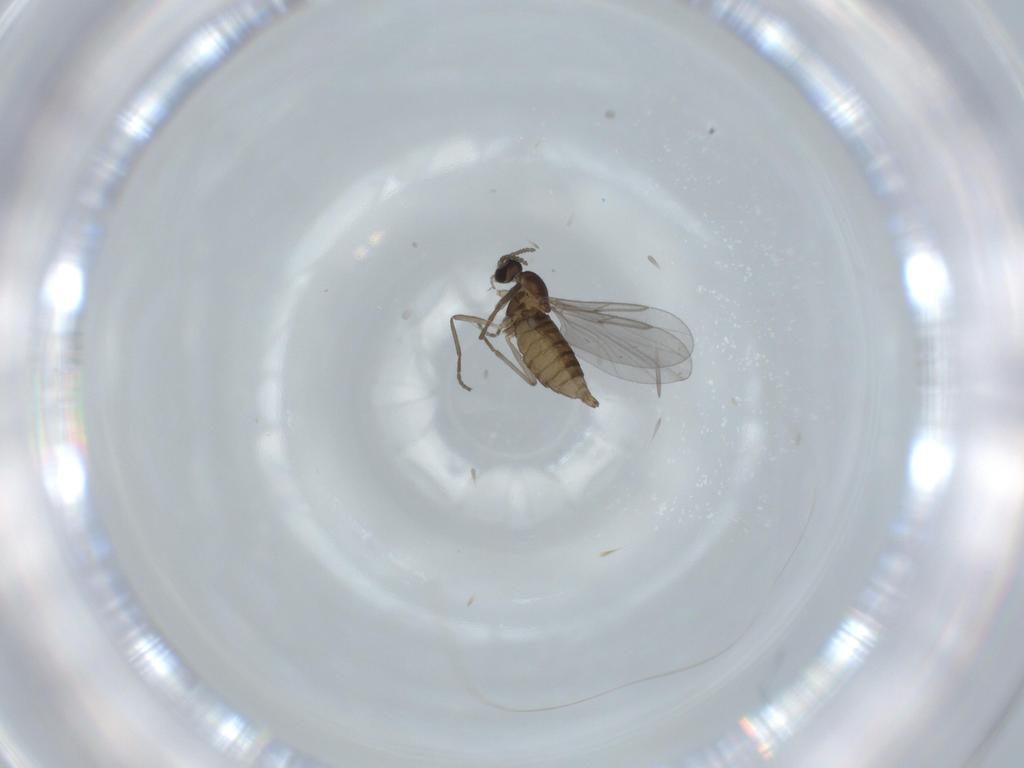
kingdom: Animalia
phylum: Arthropoda
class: Insecta
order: Diptera
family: Cecidomyiidae
